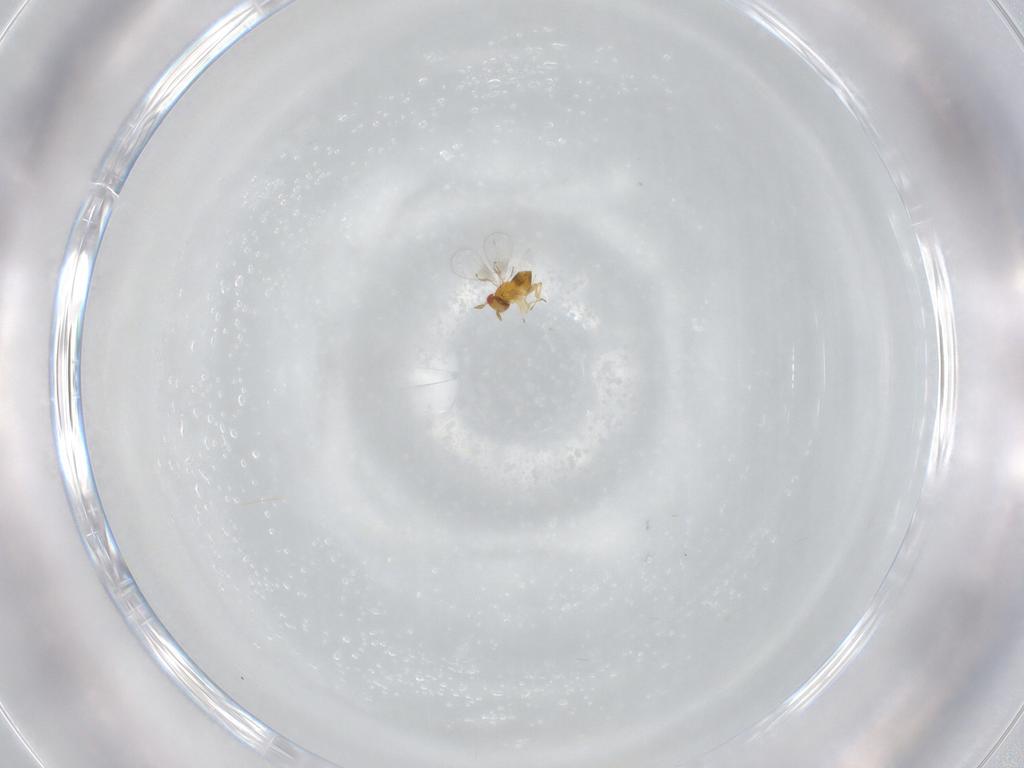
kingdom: Animalia
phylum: Arthropoda
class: Insecta
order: Hymenoptera
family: Trichogrammatidae
